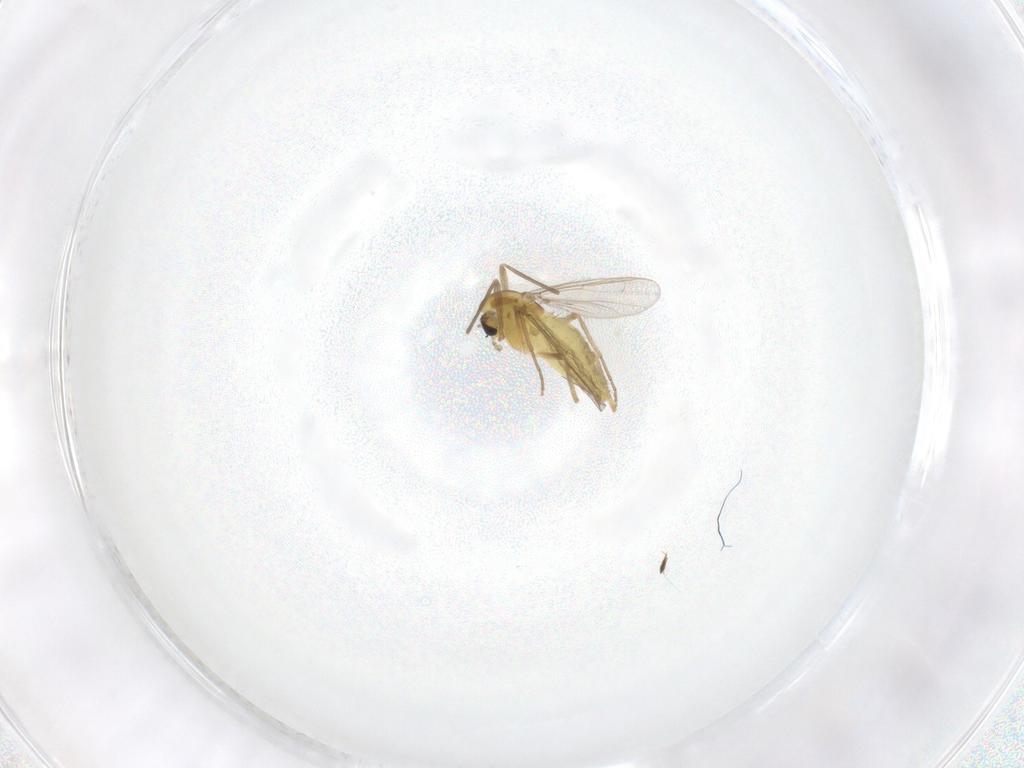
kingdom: Animalia
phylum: Arthropoda
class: Insecta
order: Diptera
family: Chironomidae
